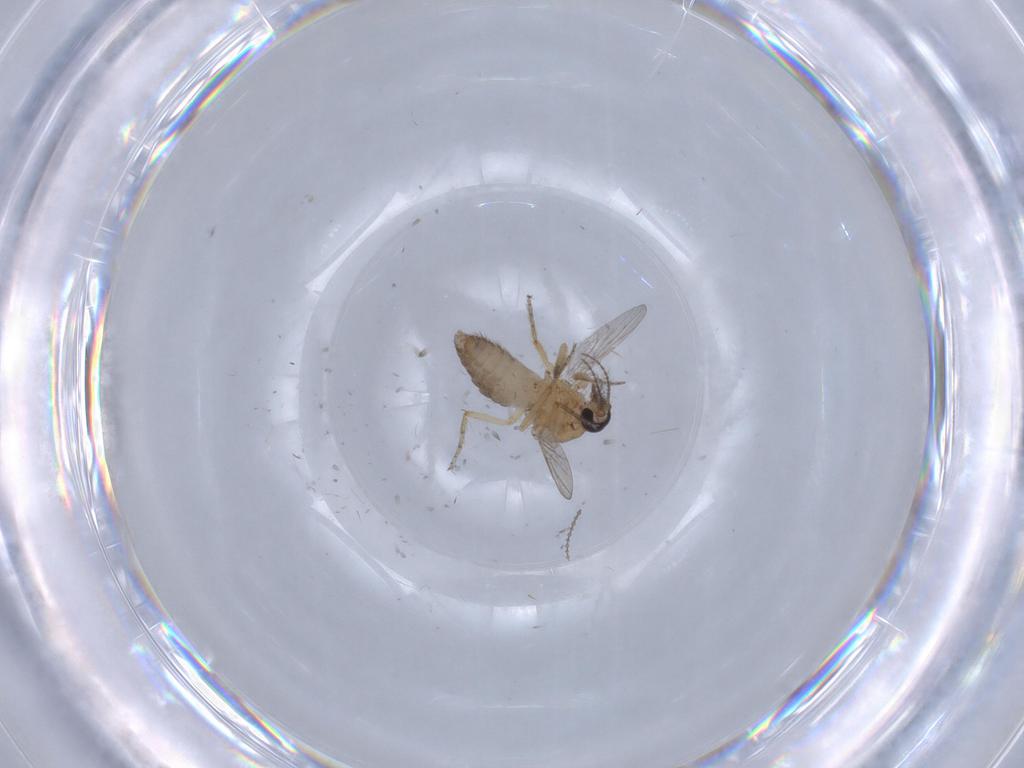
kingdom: Animalia
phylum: Arthropoda
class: Insecta
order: Diptera
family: Ceratopogonidae
